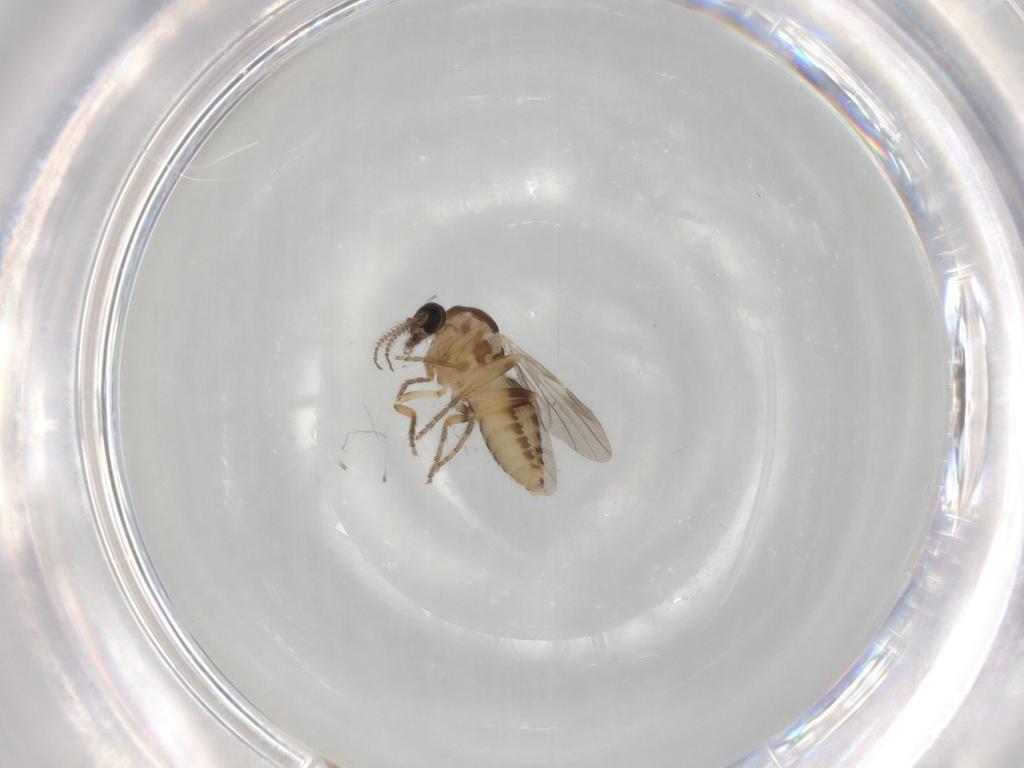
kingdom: Animalia
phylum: Arthropoda
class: Insecta
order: Diptera
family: Ceratopogonidae
